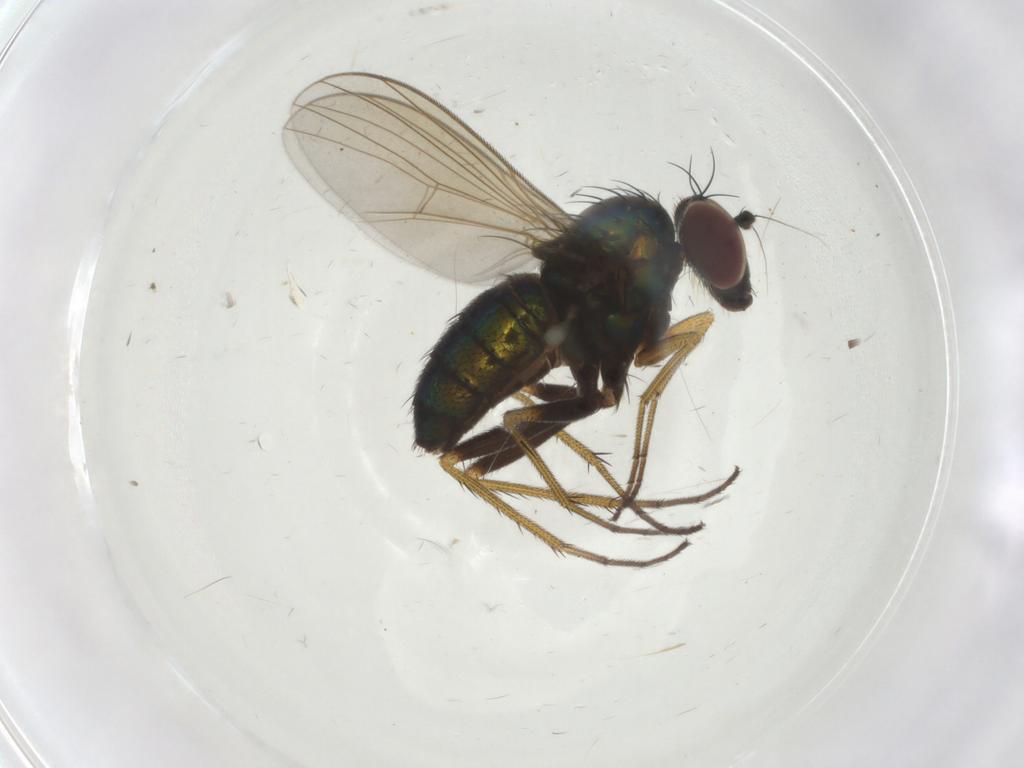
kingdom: Animalia
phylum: Arthropoda
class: Insecta
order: Diptera
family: Dolichopodidae
